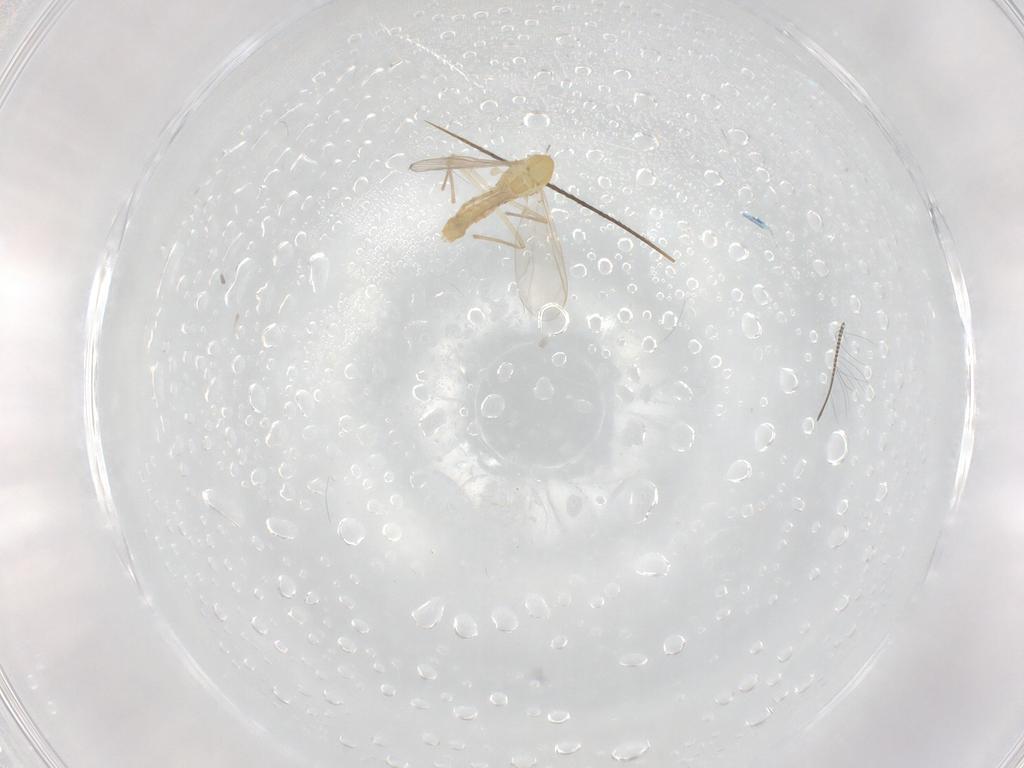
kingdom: Animalia
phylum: Arthropoda
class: Insecta
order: Diptera
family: Chironomidae
